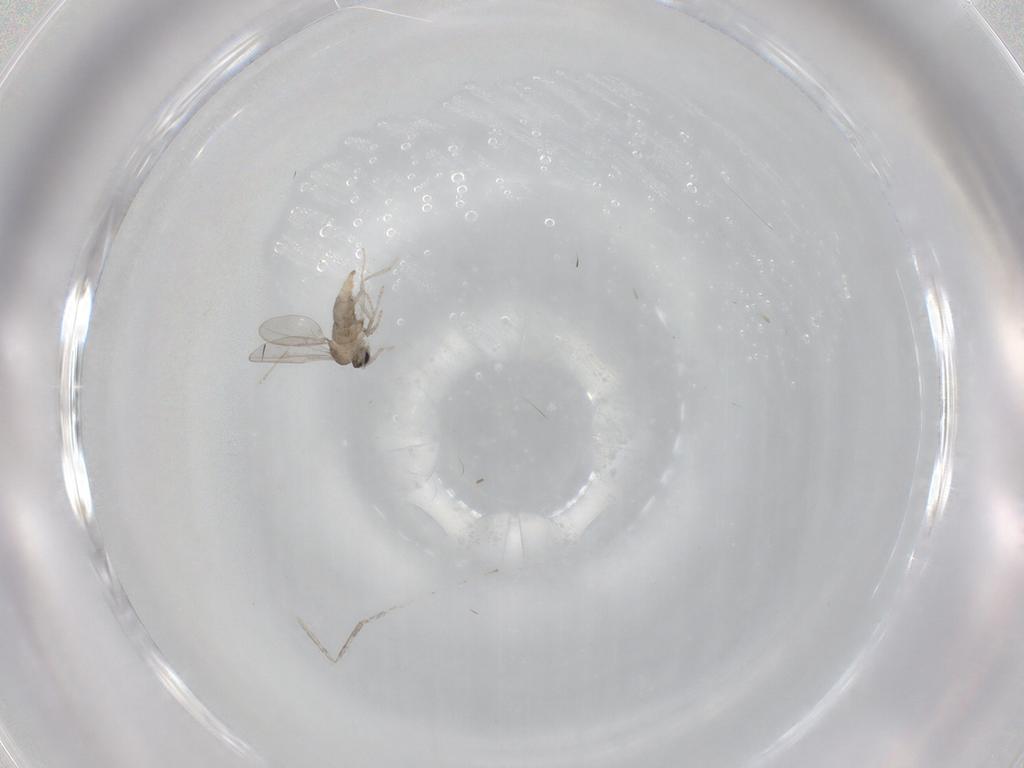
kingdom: Animalia
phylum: Arthropoda
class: Insecta
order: Diptera
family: Cecidomyiidae
